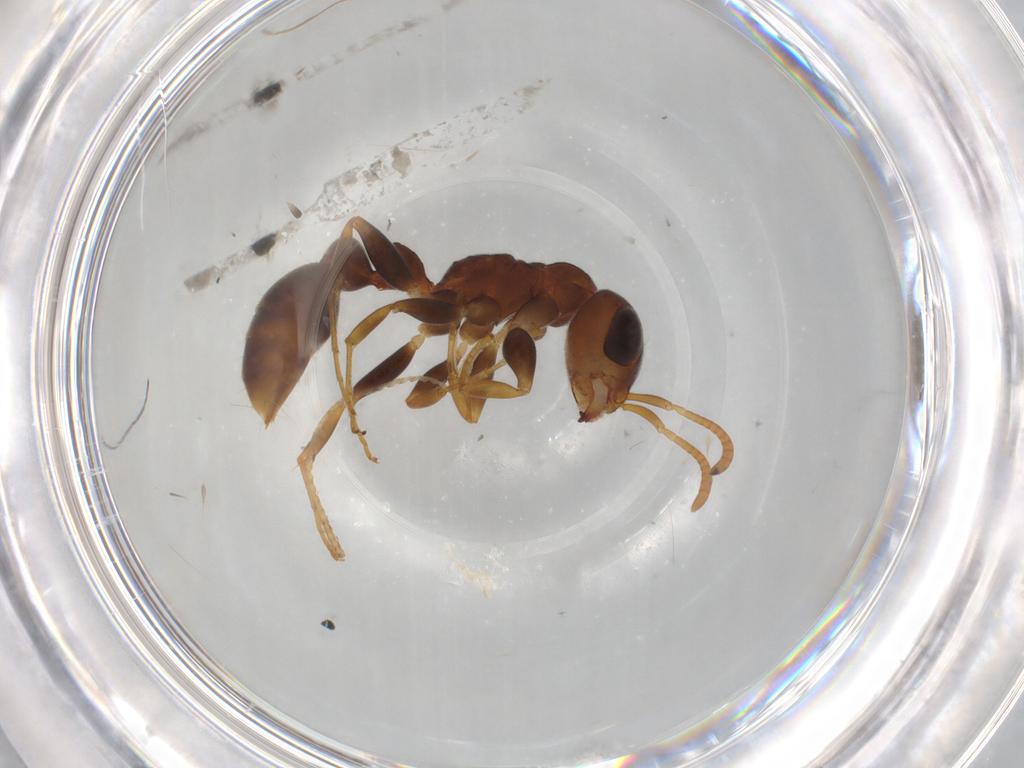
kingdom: Animalia
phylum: Arthropoda
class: Insecta
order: Hymenoptera
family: Formicidae
